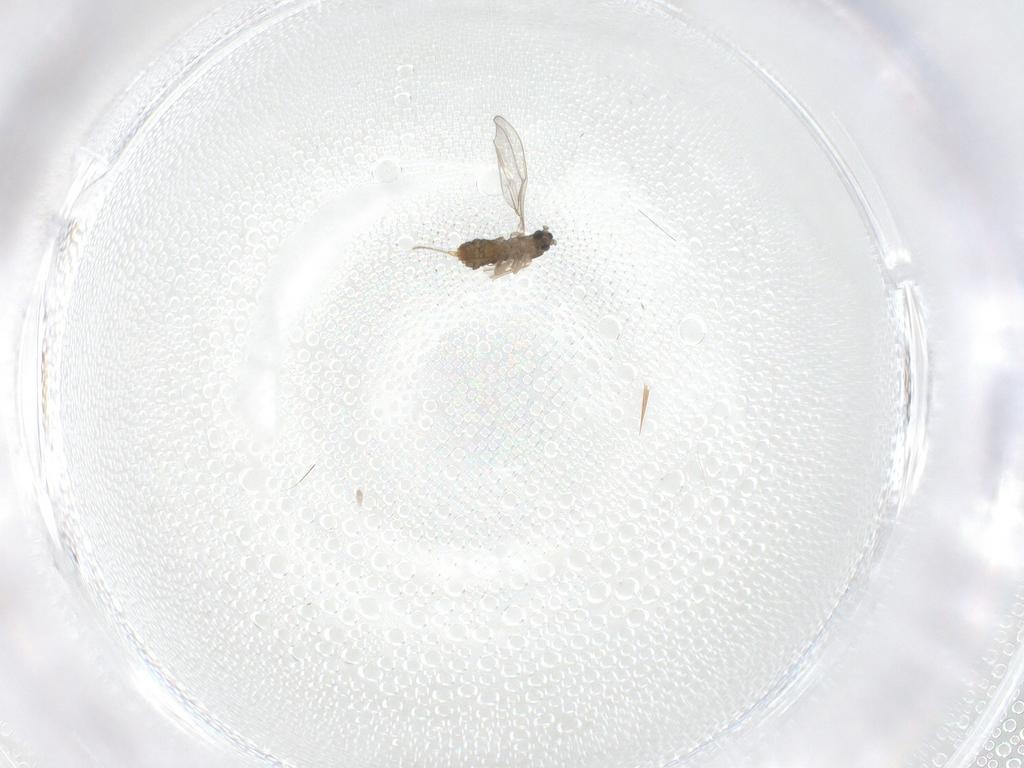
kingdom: Animalia
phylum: Arthropoda
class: Insecta
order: Diptera
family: Cecidomyiidae
